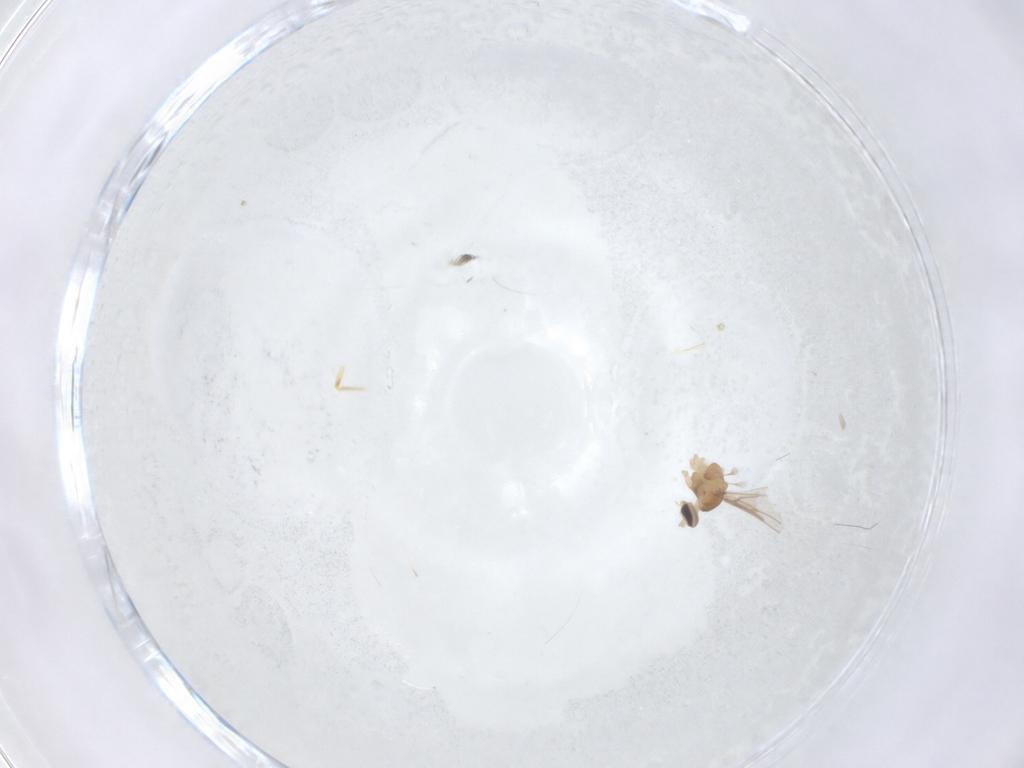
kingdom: Animalia
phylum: Arthropoda
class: Insecta
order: Diptera
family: Cecidomyiidae
